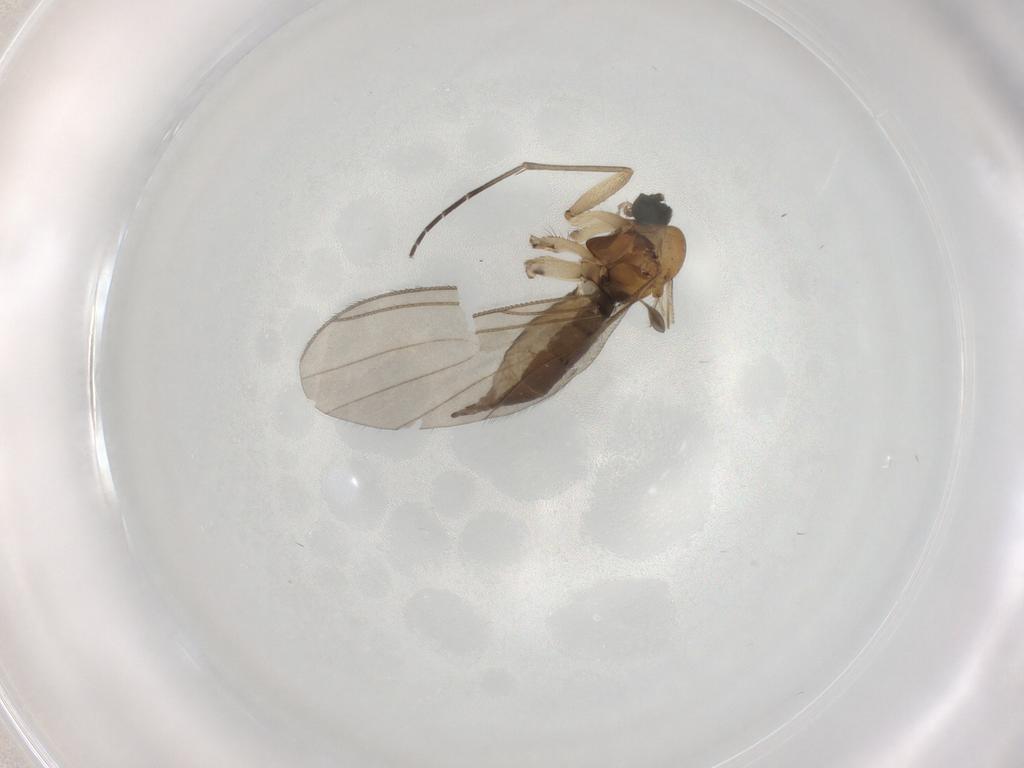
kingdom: Animalia
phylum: Arthropoda
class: Insecta
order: Diptera
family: Sciaridae
